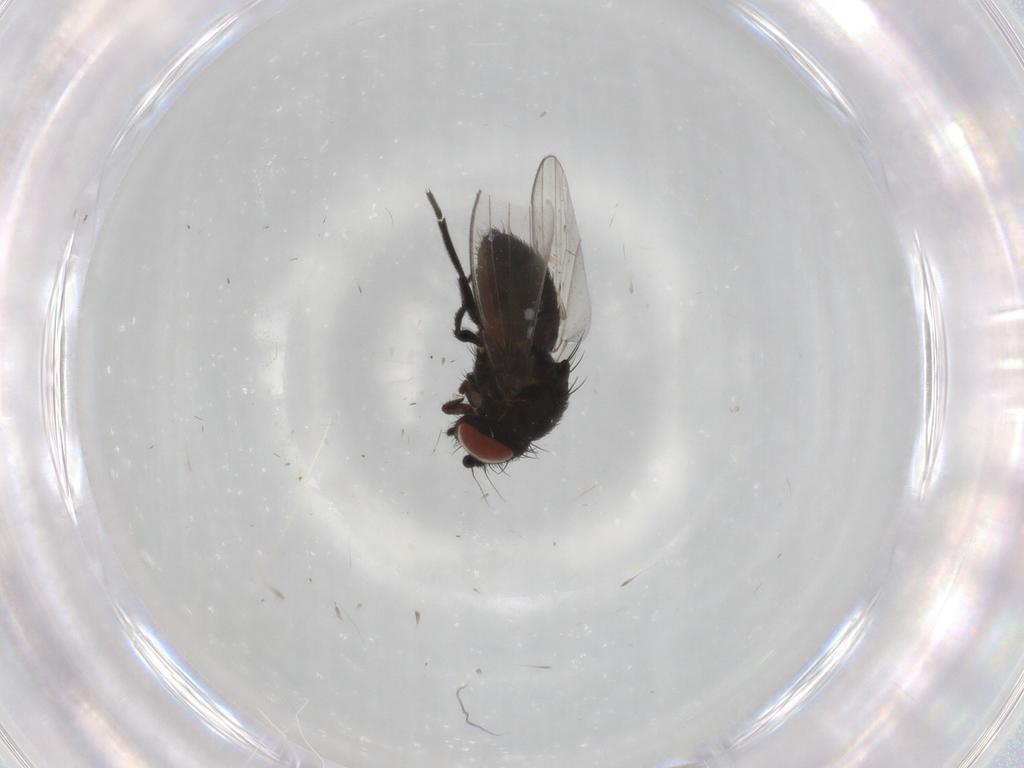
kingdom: Animalia
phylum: Arthropoda
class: Insecta
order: Diptera
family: Milichiidae
